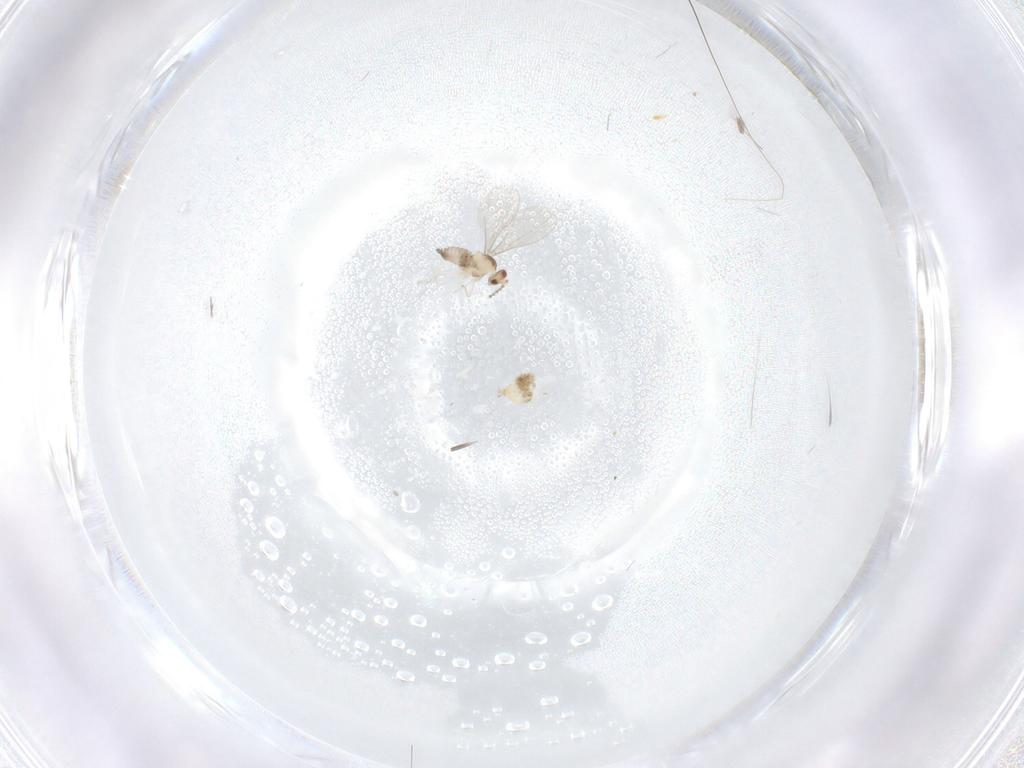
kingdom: Animalia
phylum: Arthropoda
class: Insecta
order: Diptera
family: Cecidomyiidae
